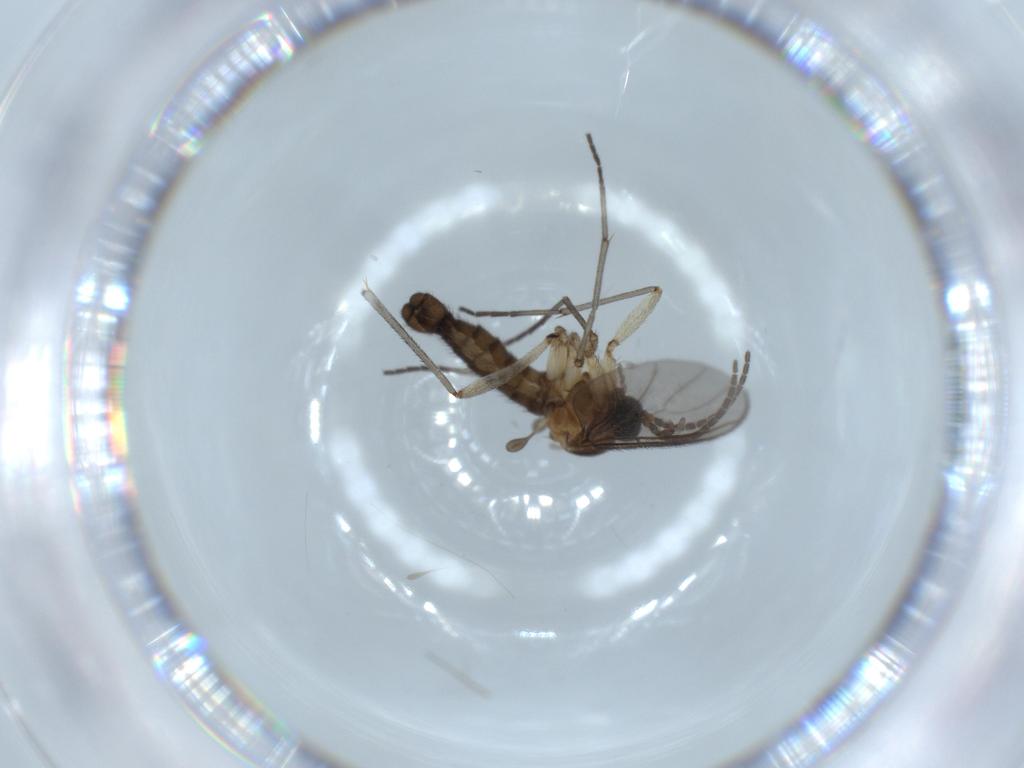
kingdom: Animalia
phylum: Arthropoda
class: Insecta
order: Diptera
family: Sciaridae
